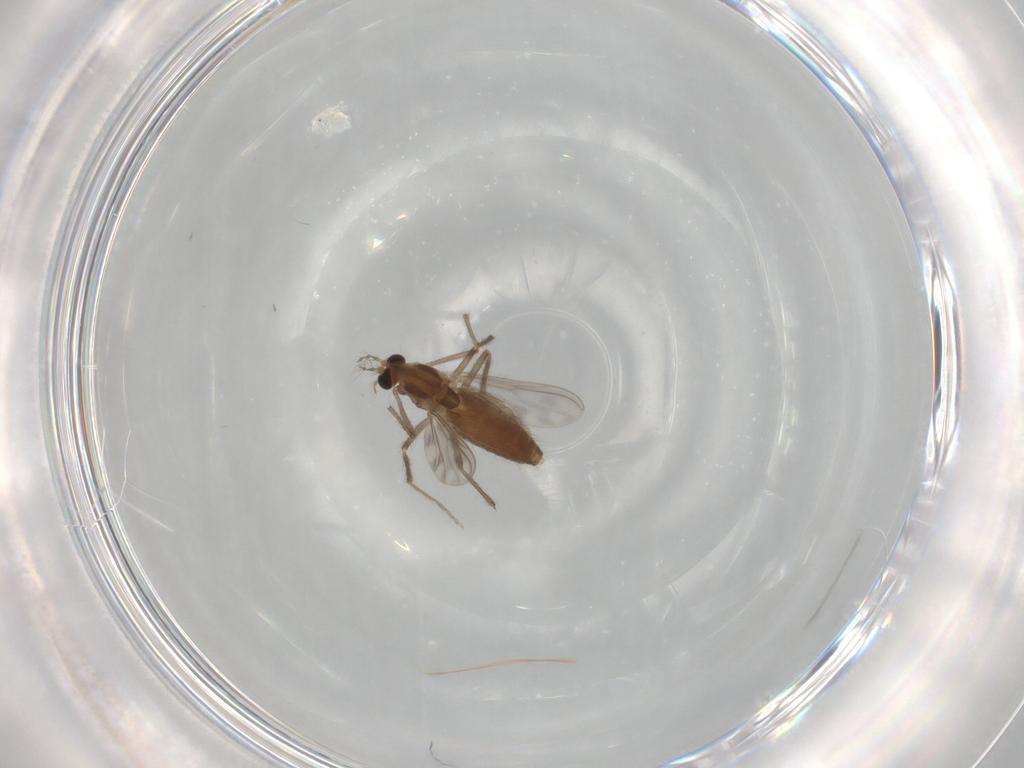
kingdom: Animalia
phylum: Arthropoda
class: Insecta
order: Diptera
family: Chironomidae
